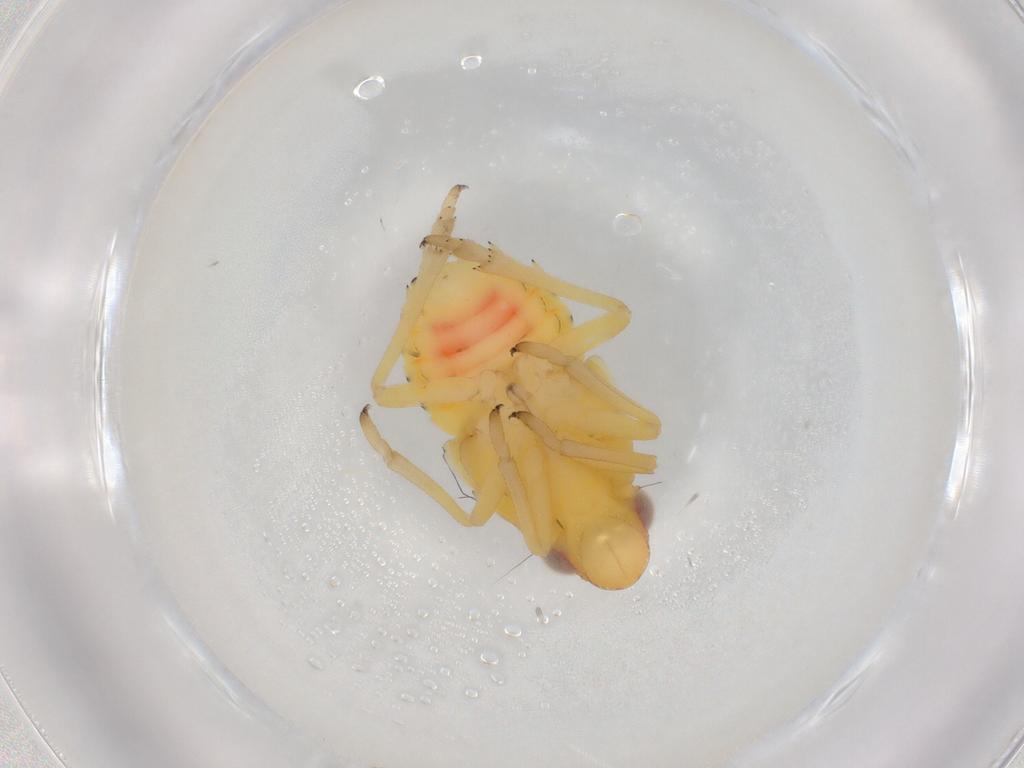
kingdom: Animalia
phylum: Arthropoda
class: Insecta
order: Hemiptera
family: Caliscelidae
